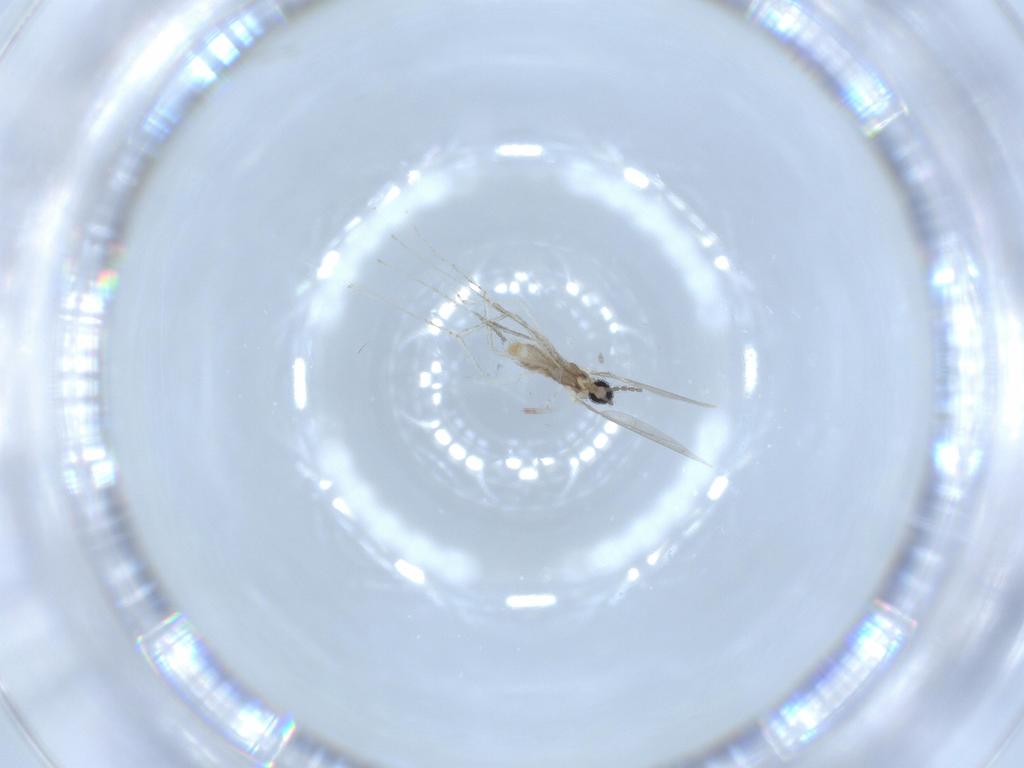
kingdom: Animalia
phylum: Arthropoda
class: Insecta
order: Diptera
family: Cecidomyiidae
